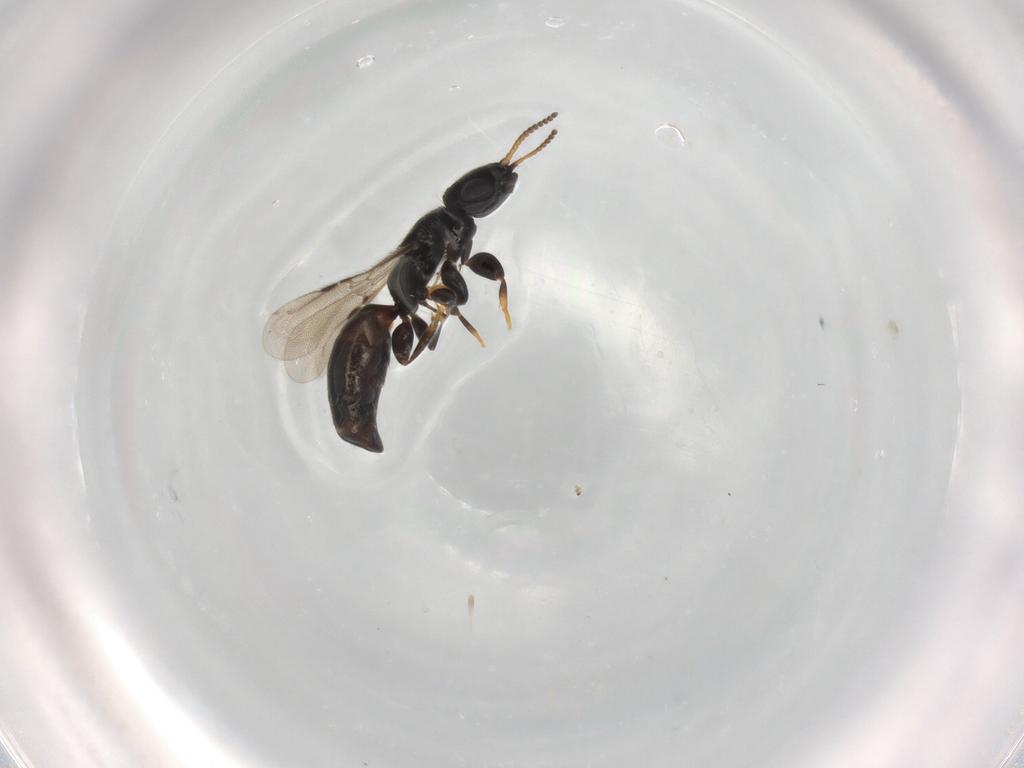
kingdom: Animalia
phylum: Arthropoda
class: Insecta
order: Hymenoptera
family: Bethylidae
